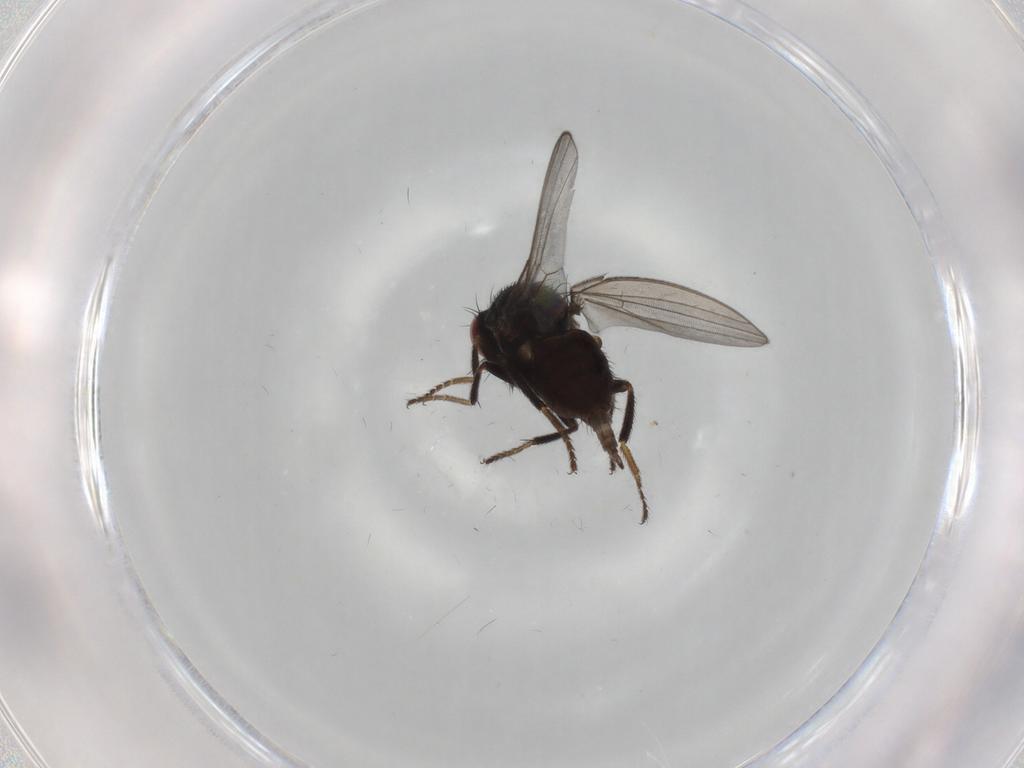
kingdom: Animalia
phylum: Arthropoda
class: Insecta
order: Diptera
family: Milichiidae
